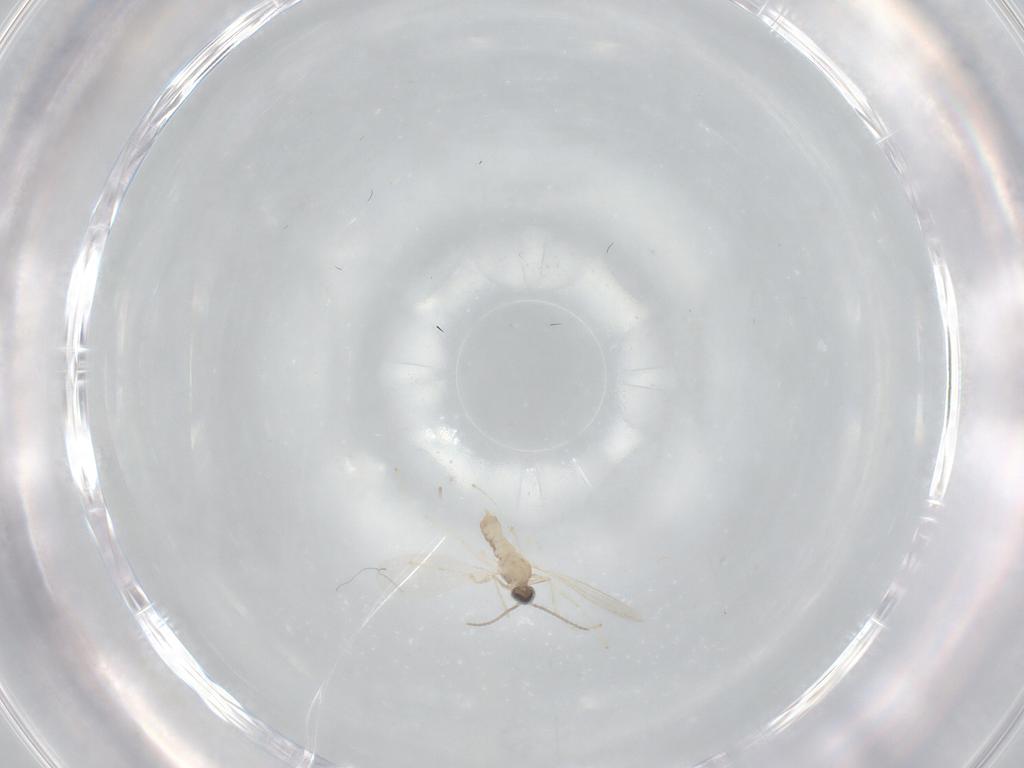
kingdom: Animalia
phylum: Arthropoda
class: Insecta
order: Diptera
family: Cecidomyiidae
